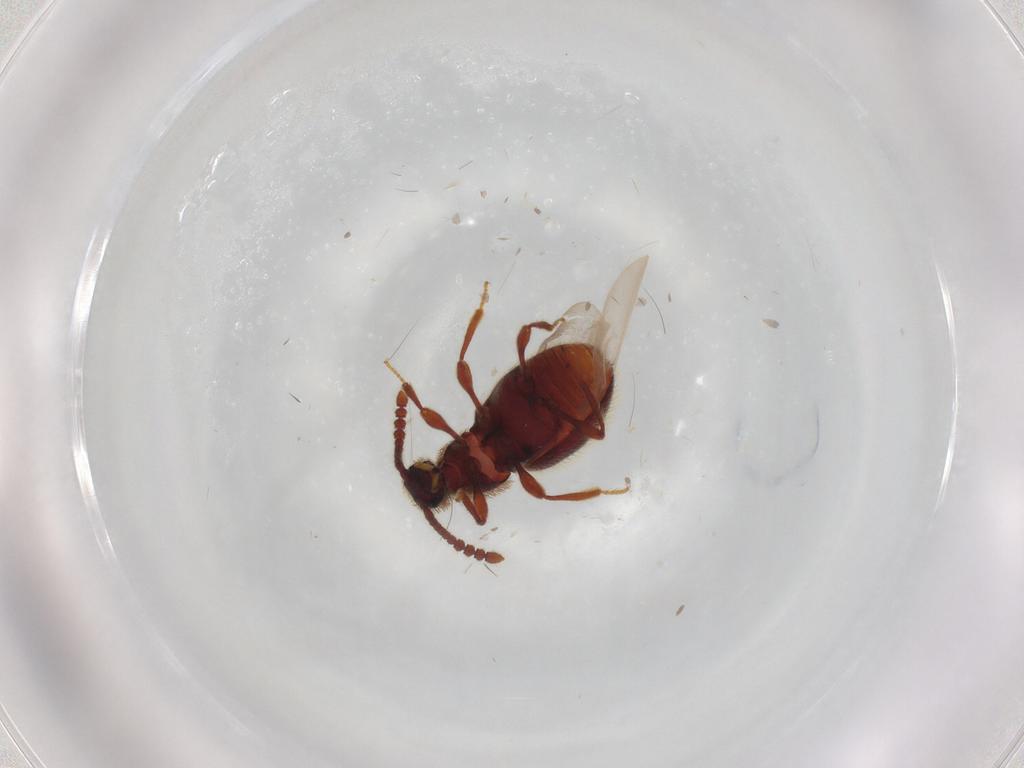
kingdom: Animalia
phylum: Arthropoda
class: Insecta
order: Coleoptera
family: Staphylinidae
